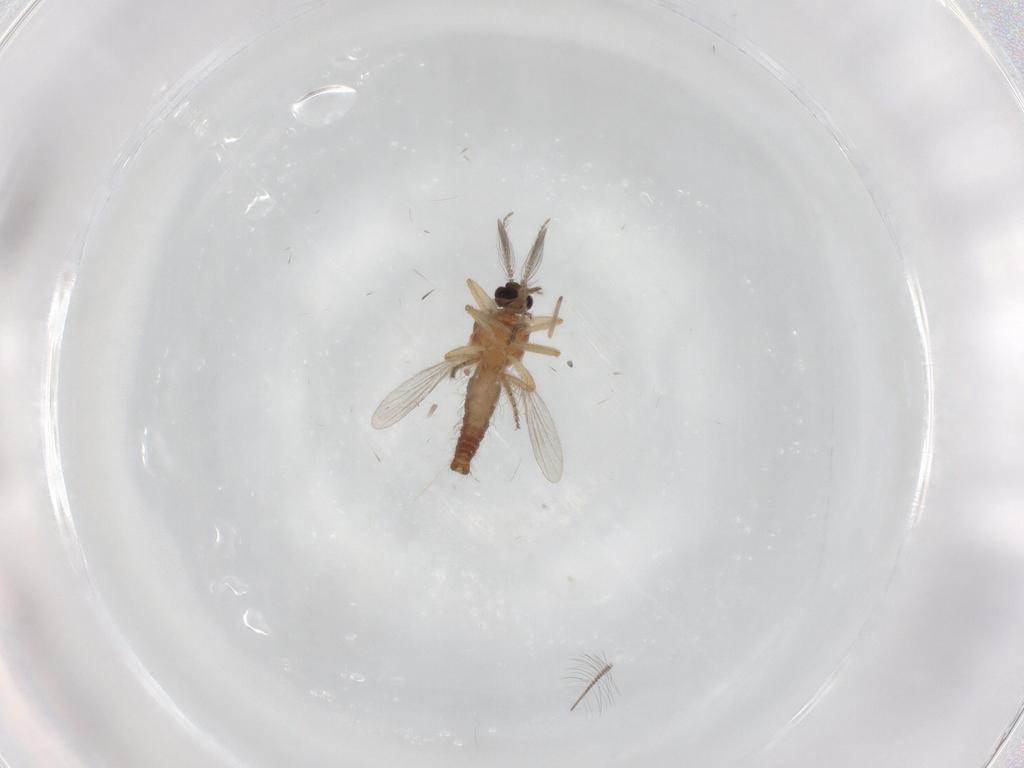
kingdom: Animalia
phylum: Arthropoda
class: Insecta
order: Diptera
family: Ceratopogonidae
